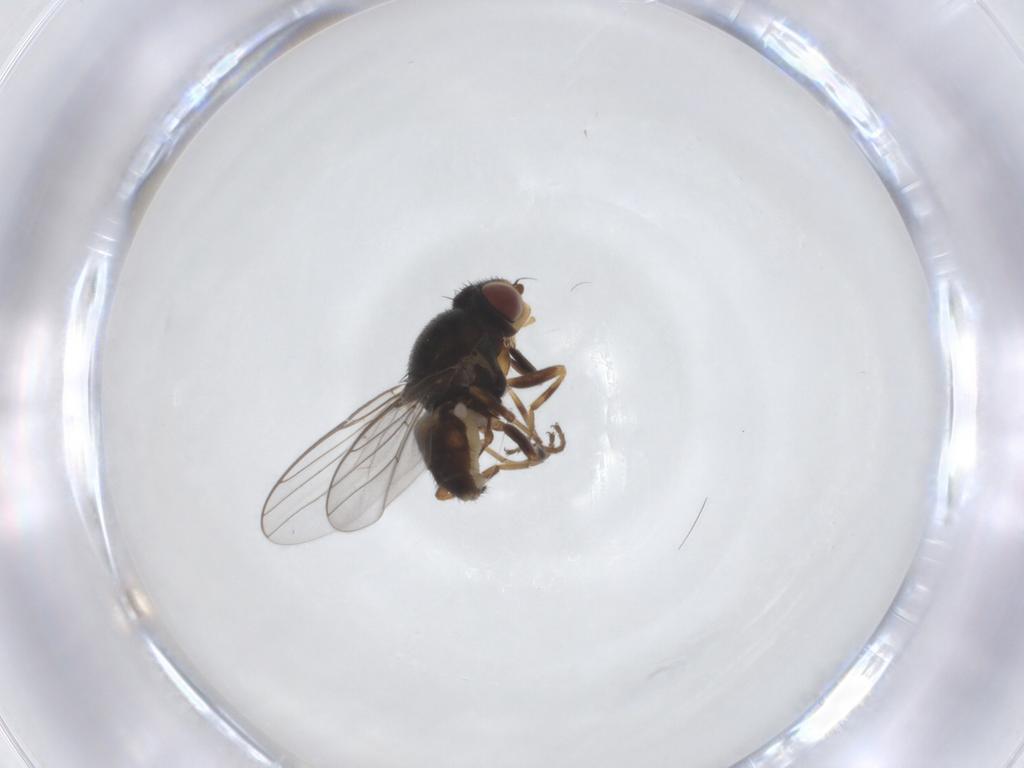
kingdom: Animalia
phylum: Arthropoda
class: Insecta
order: Diptera
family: Chloropidae
